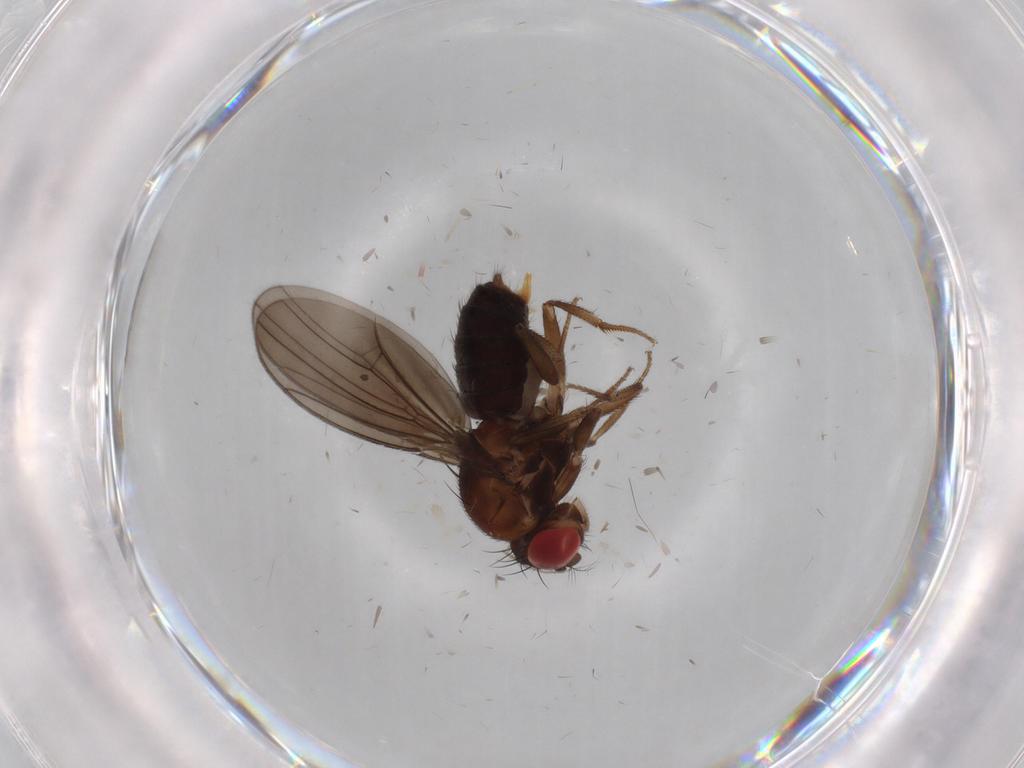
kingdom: Animalia
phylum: Arthropoda
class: Insecta
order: Diptera
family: Drosophilidae
